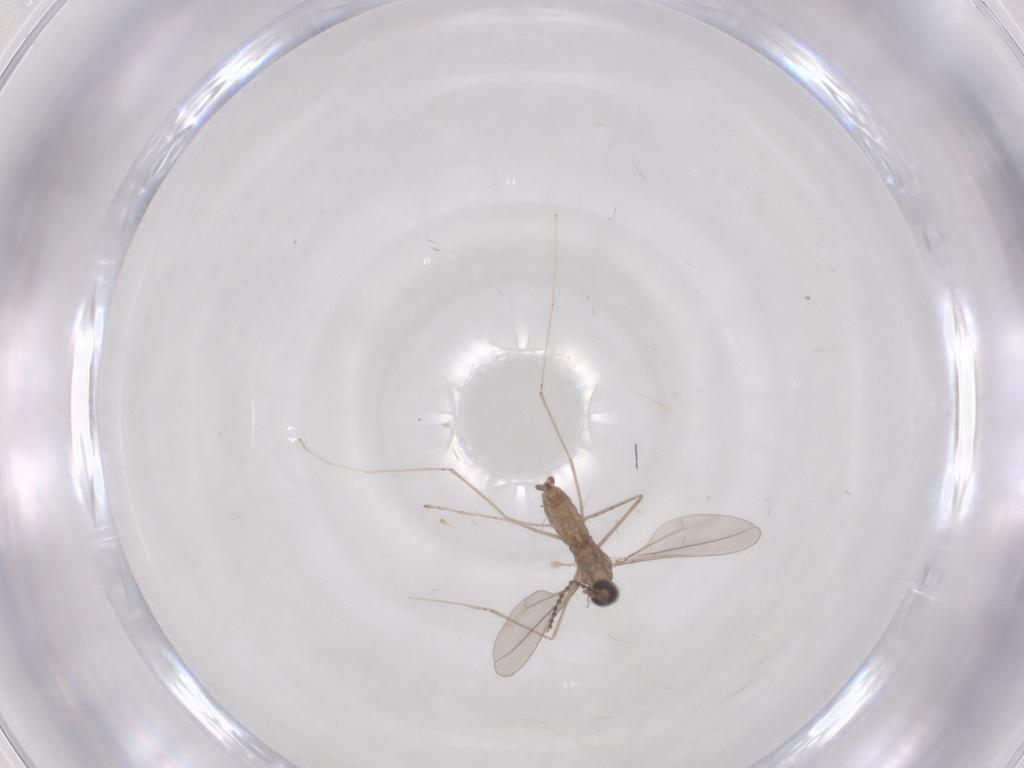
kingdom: Animalia
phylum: Arthropoda
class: Insecta
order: Diptera
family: Cecidomyiidae
